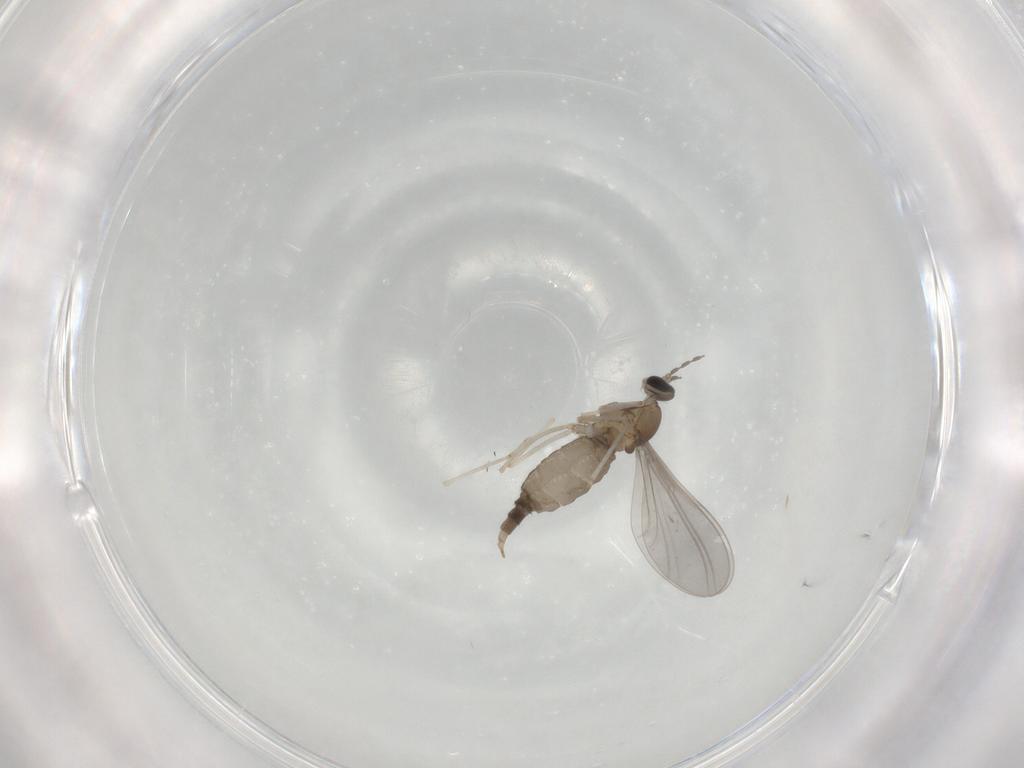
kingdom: Animalia
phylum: Arthropoda
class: Insecta
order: Diptera
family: Cecidomyiidae
